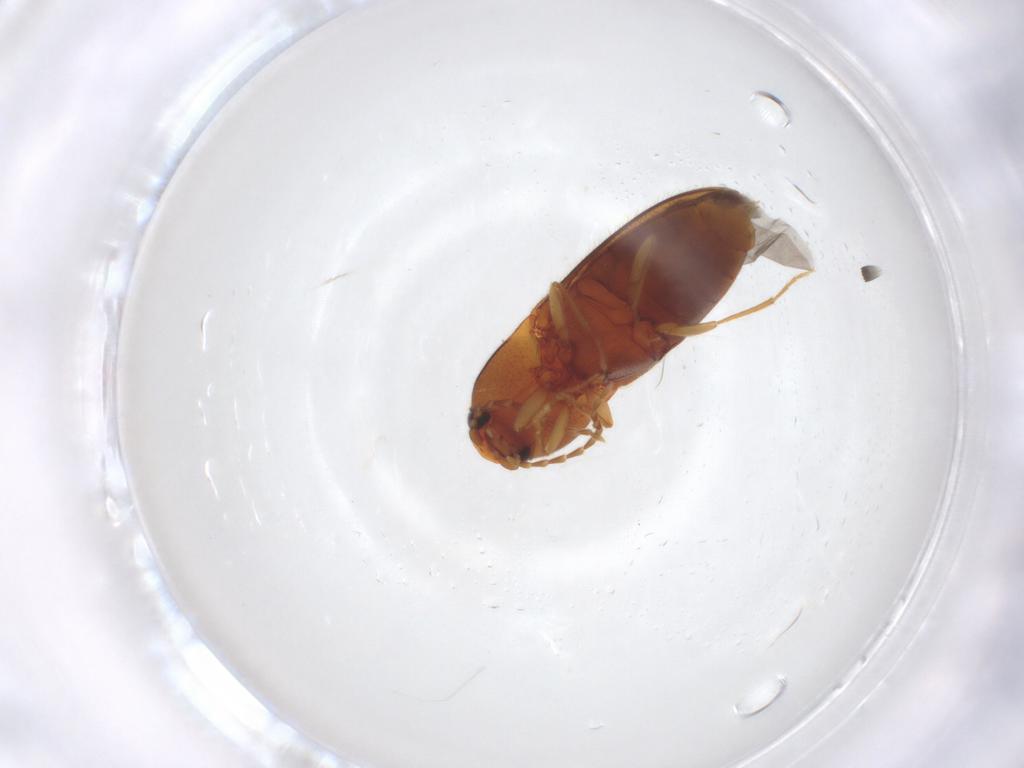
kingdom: Animalia
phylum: Arthropoda
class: Insecta
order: Coleoptera
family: Elateridae
